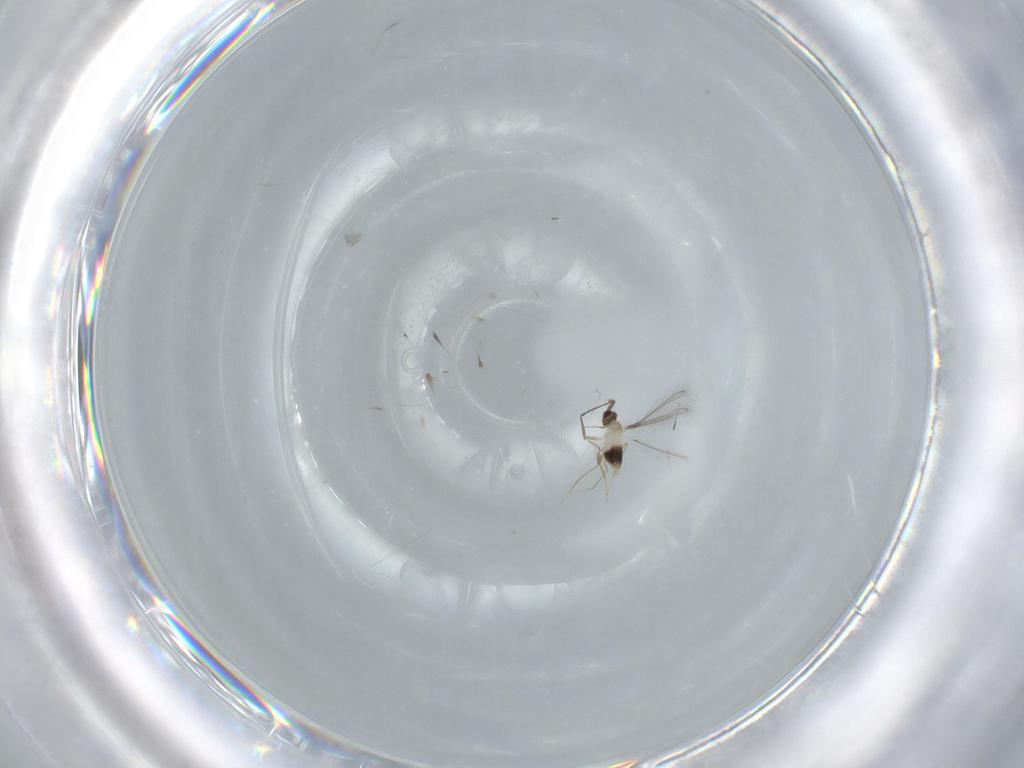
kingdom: Animalia
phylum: Arthropoda
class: Insecta
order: Hymenoptera
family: Mymaridae
